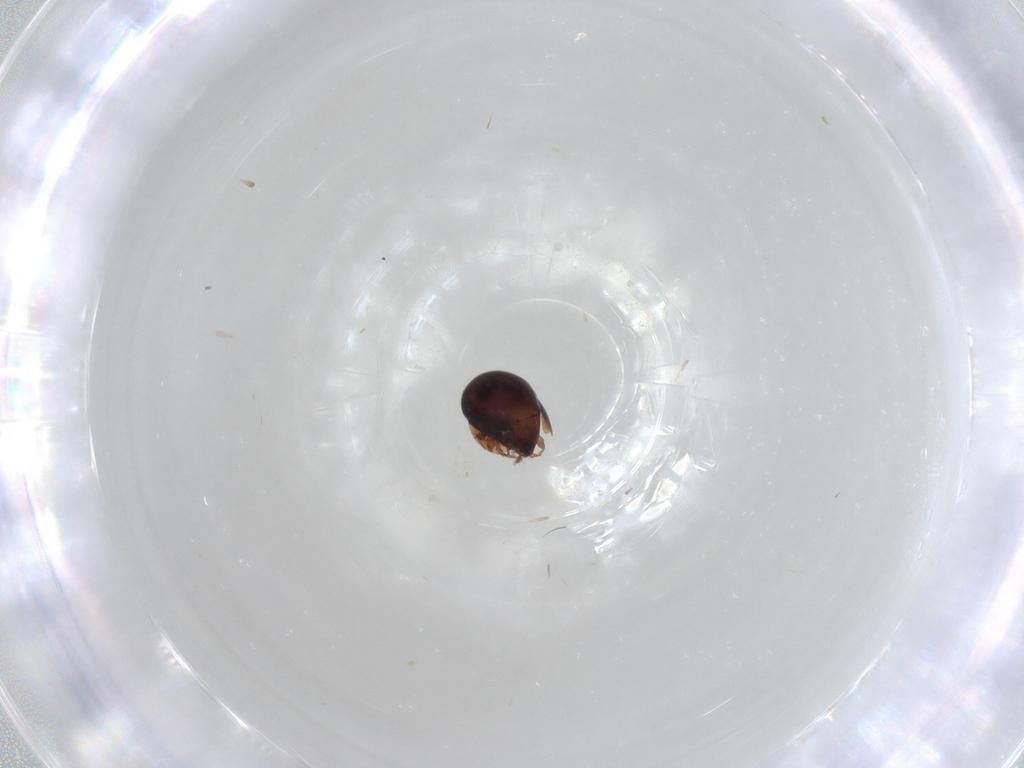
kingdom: Animalia
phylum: Arthropoda
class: Arachnida
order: Sarcoptiformes
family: Galumnidae
